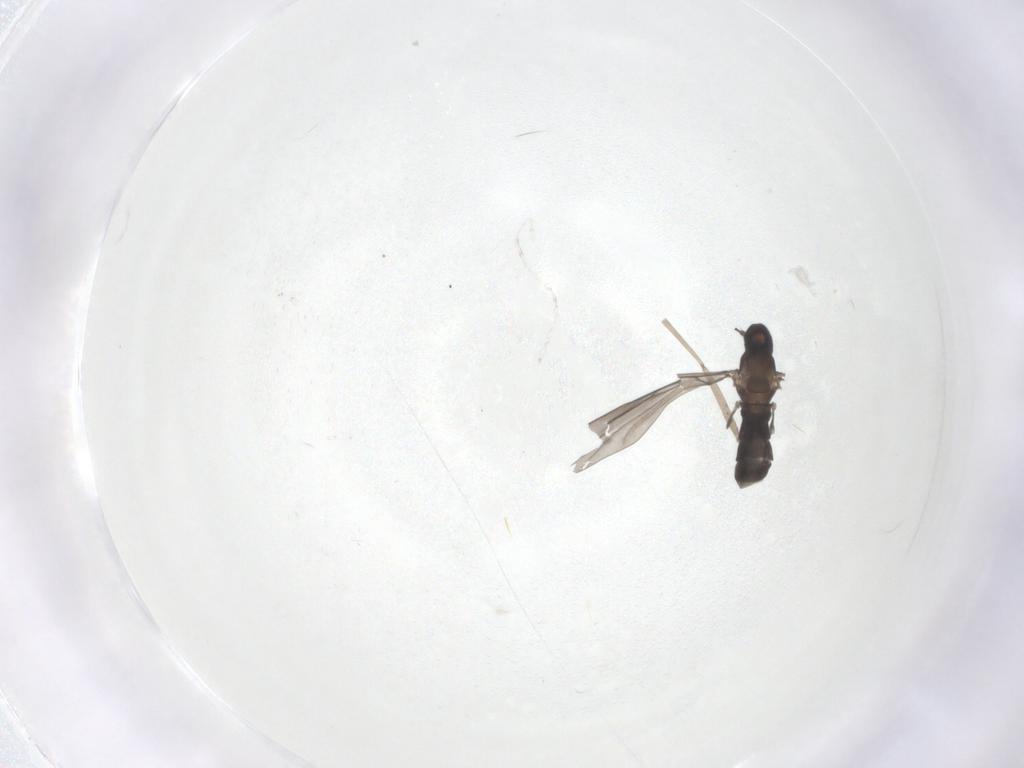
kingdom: Animalia
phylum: Arthropoda
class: Insecta
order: Diptera
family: Cecidomyiidae
